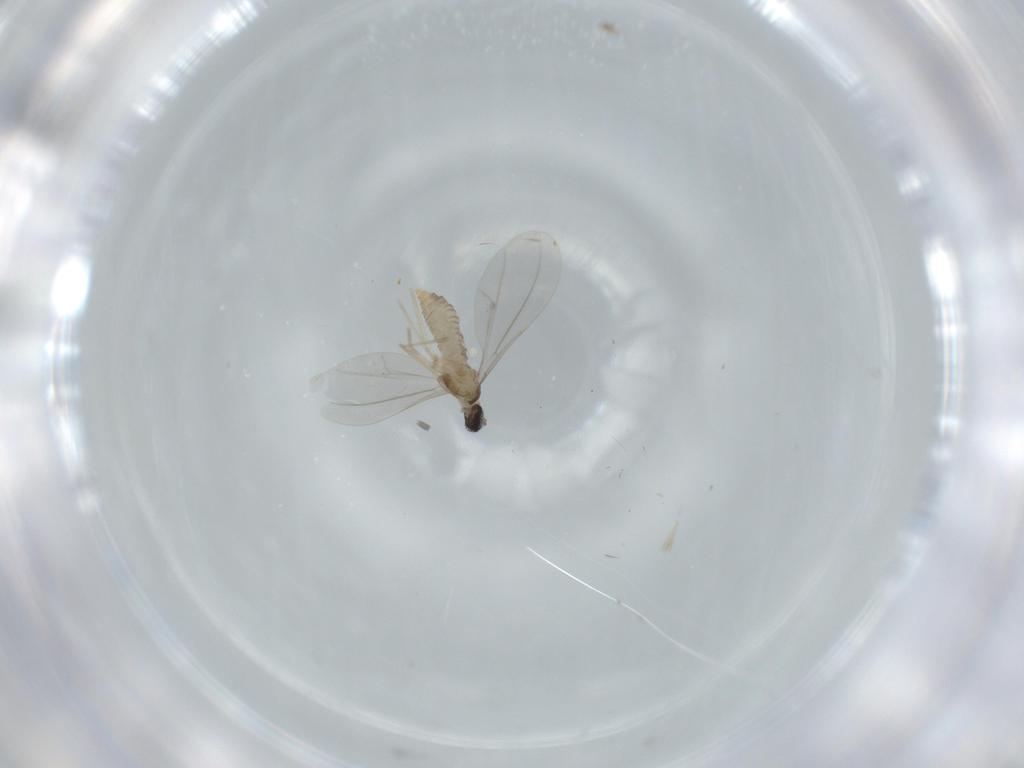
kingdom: Animalia
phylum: Arthropoda
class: Insecta
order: Diptera
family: Cecidomyiidae
